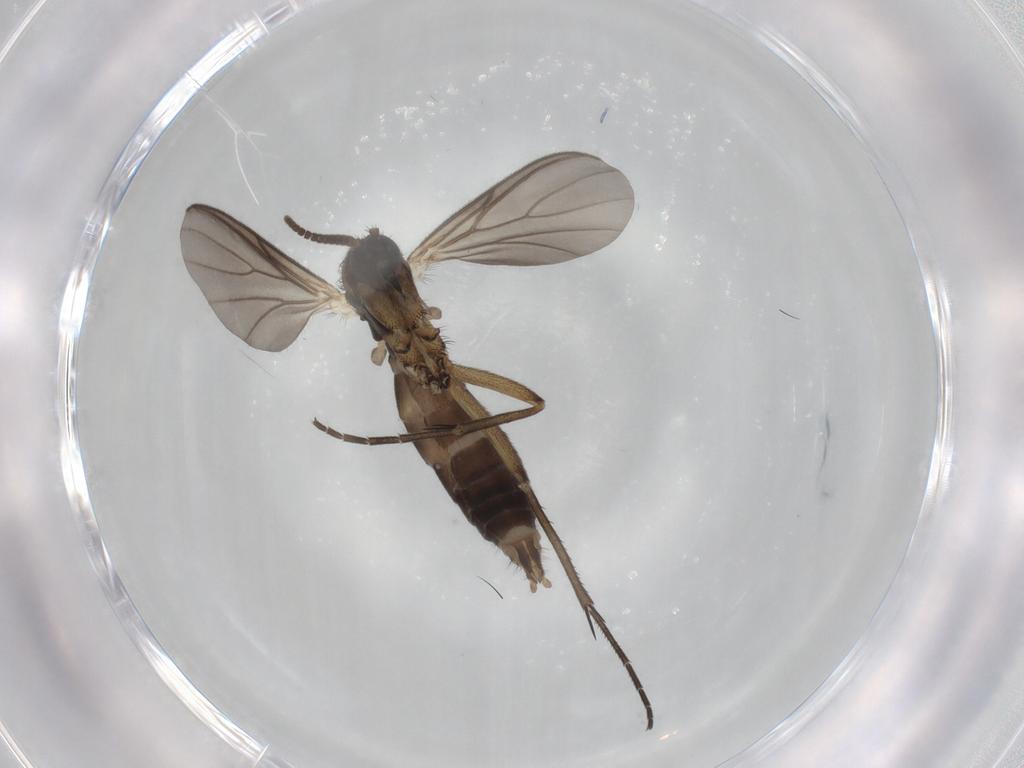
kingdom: Animalia
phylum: Arthropoda
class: Insecta
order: Diptera
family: Mycetophilidae
